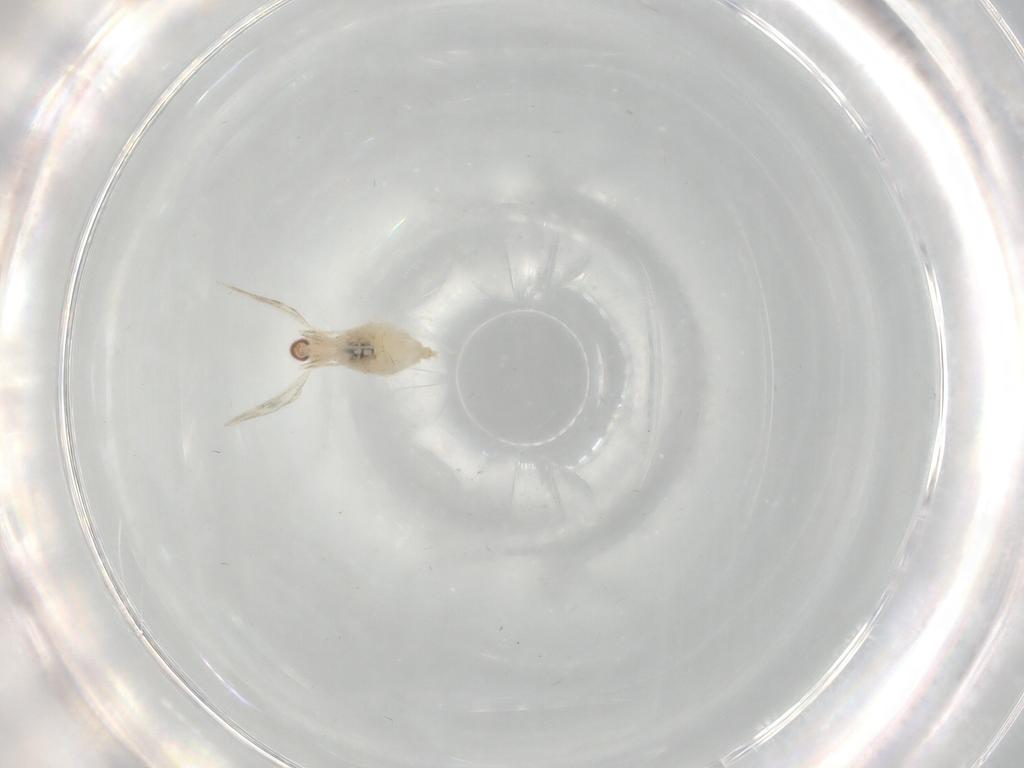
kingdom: Animalia
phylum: Arthropoda
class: Insecta
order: Diptera
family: Cecidomyiidae
